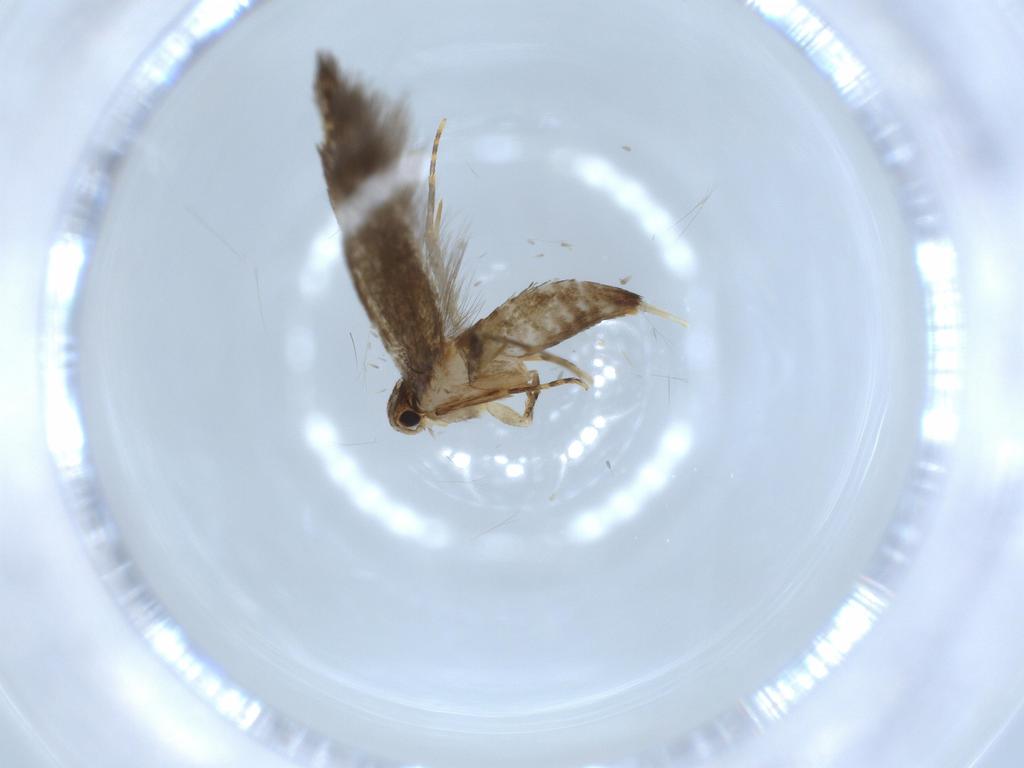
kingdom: Animalia
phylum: Arthropoda
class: Insecta
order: Lepidoptera
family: Tineidae
